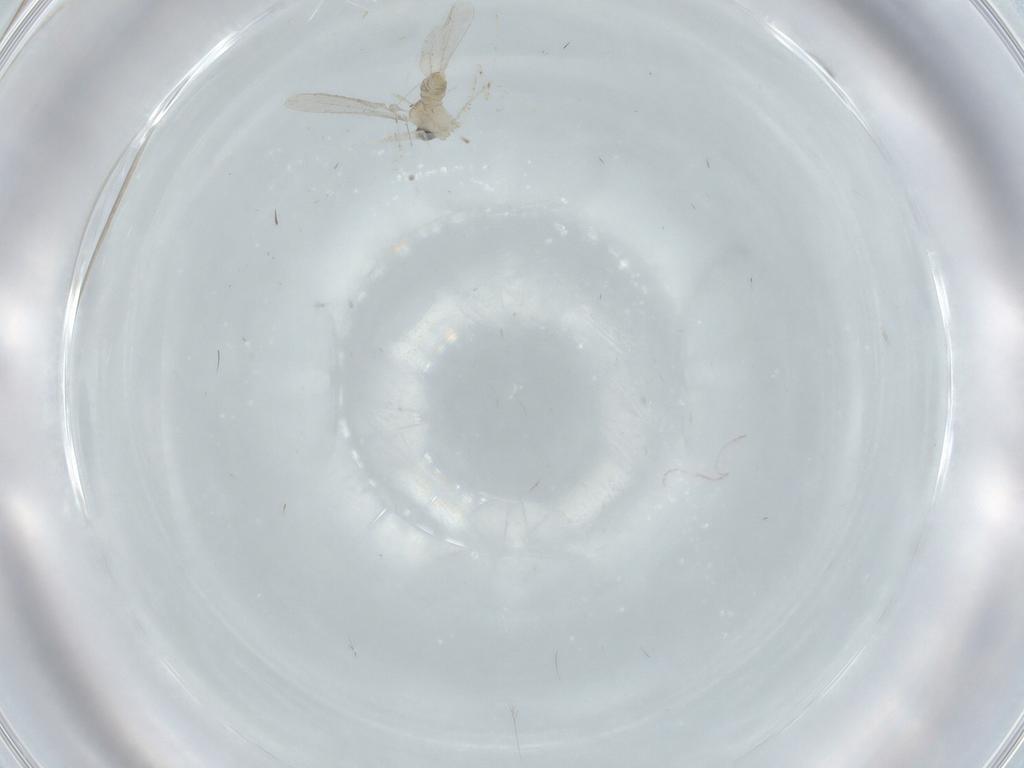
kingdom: Animalia
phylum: Arthropoda
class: Insecta
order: Diptera
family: Cecidomyiidae
